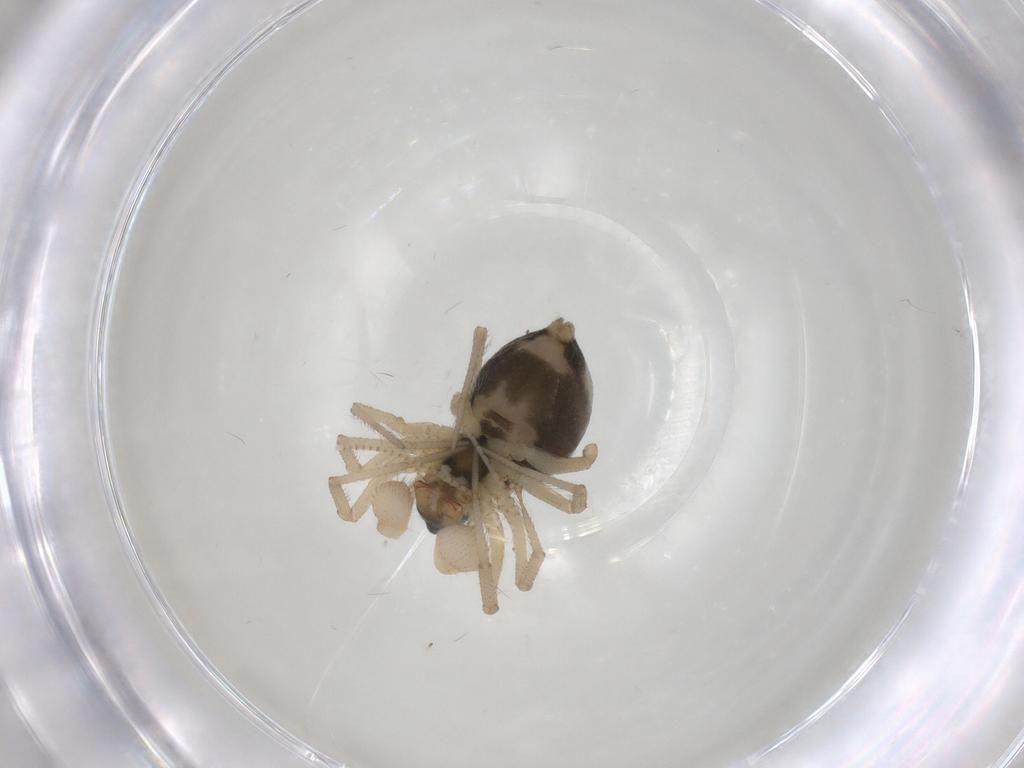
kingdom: Animalia
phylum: Arthropoda
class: Arachnida
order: Araneae
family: Linyphiidae
